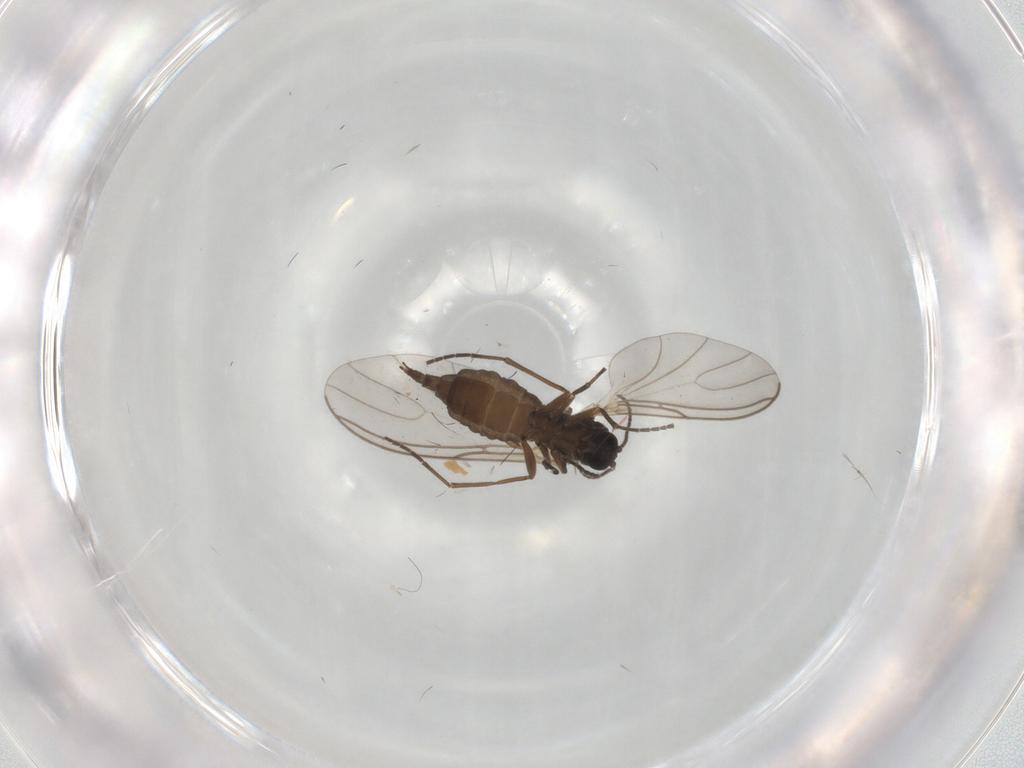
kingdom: Animalia
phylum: Arthropoda
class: Insecta
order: Diptera
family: Sciaridae
